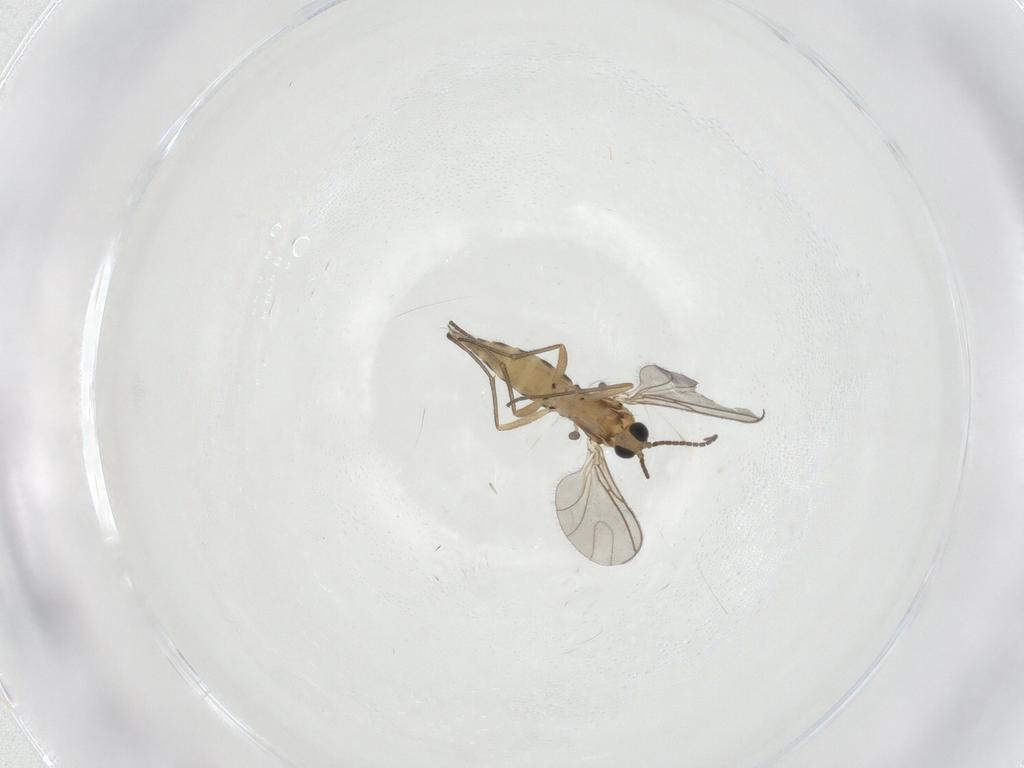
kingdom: Animalia
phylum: Arthropoda
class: Insecta
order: Diptera
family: Sciaridae
